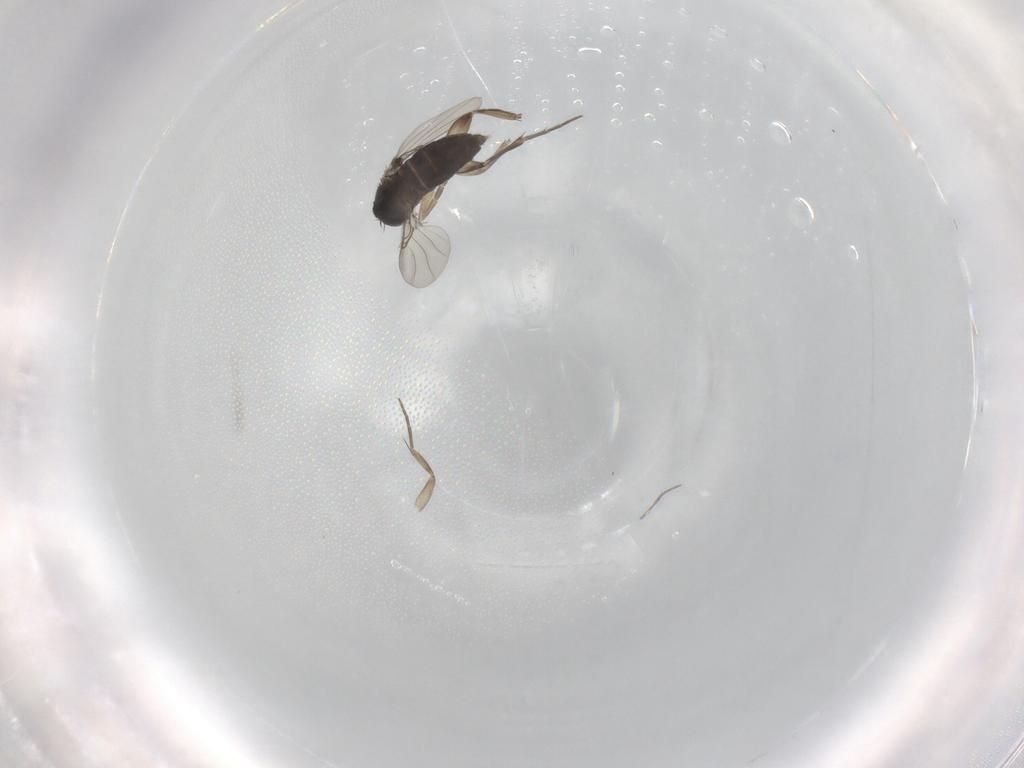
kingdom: Animalia
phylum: Arthropoda
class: Insecta
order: Diptera
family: Phoridae
